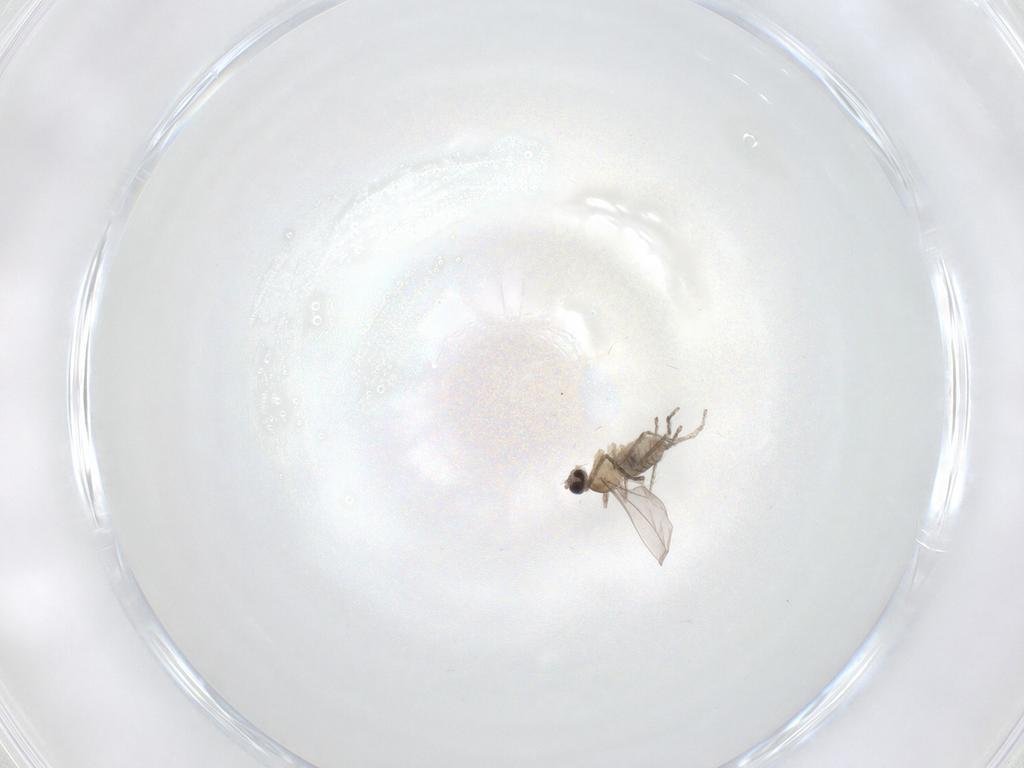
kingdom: Animalia
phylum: Arthropoda
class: Insecta
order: Diptera
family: Cecidomyiidae
